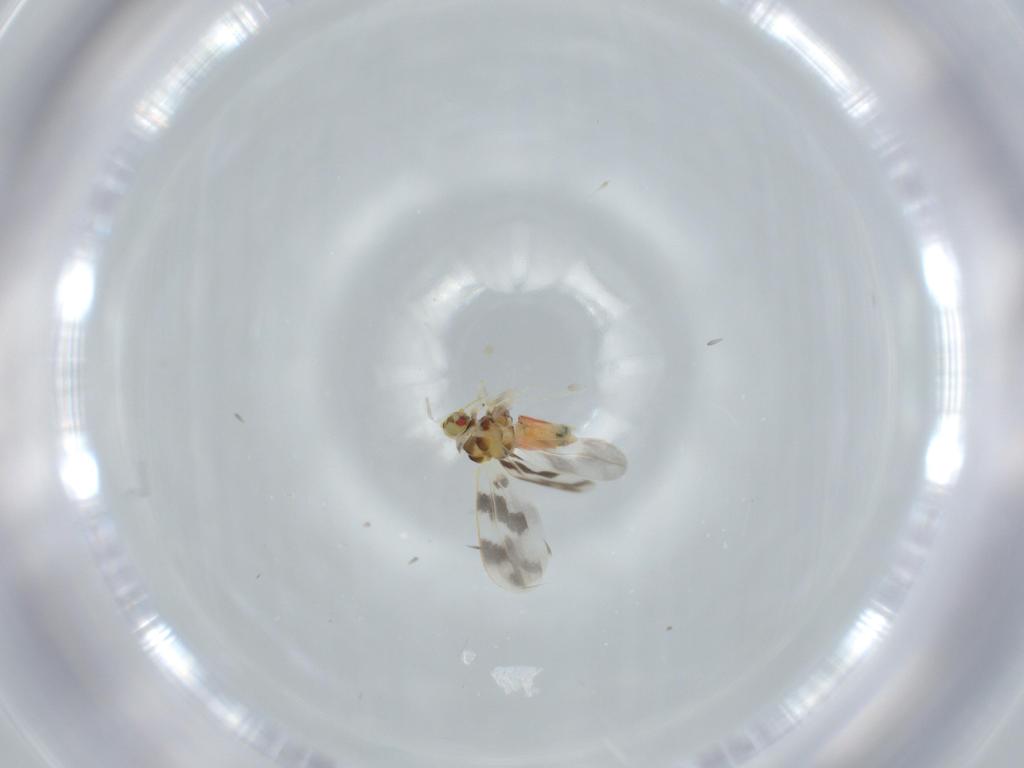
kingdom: Animalia
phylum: Arthropoda
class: Insecta
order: Hemiptera
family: Aleyrodidae
